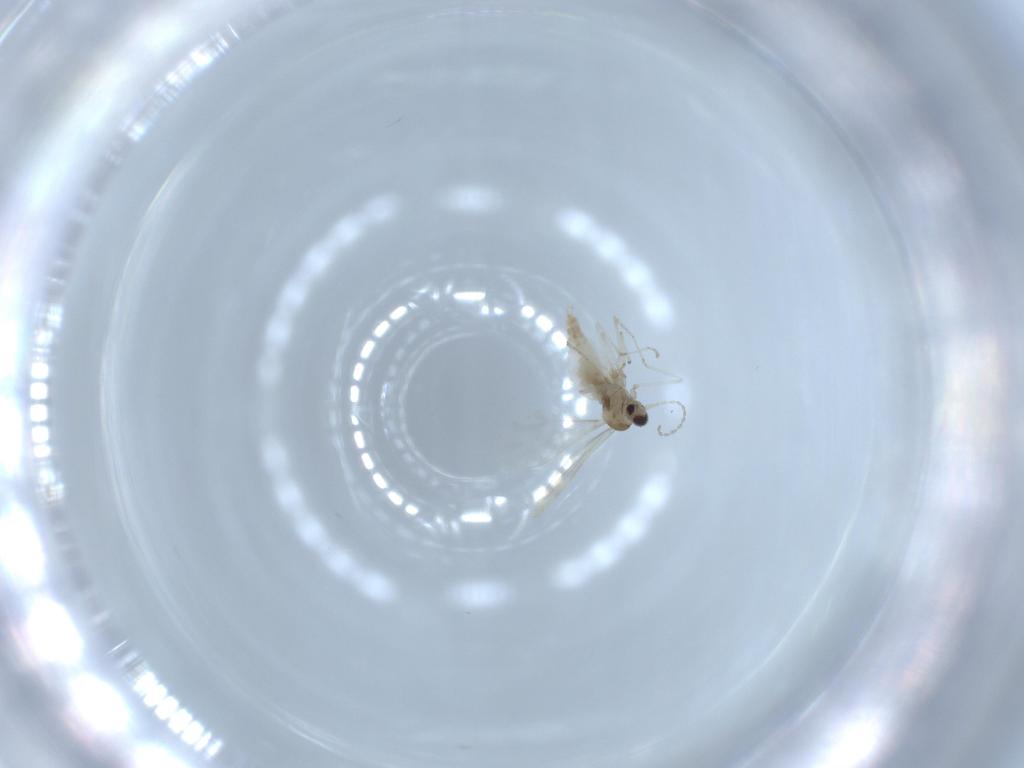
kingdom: Animalia
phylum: Arthropoda
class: Insecta
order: Diptera
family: Cecidomyiidae
